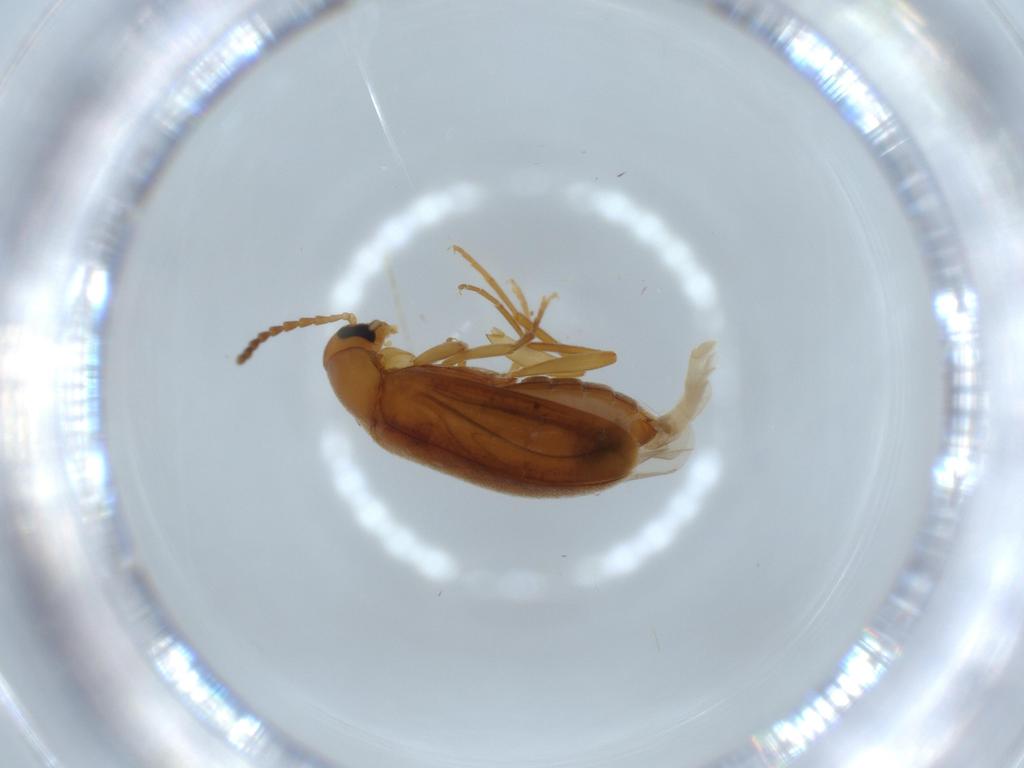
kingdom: Animalia
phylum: Arthropoda
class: Insecta
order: Coleoptera
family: Scraptiidae
